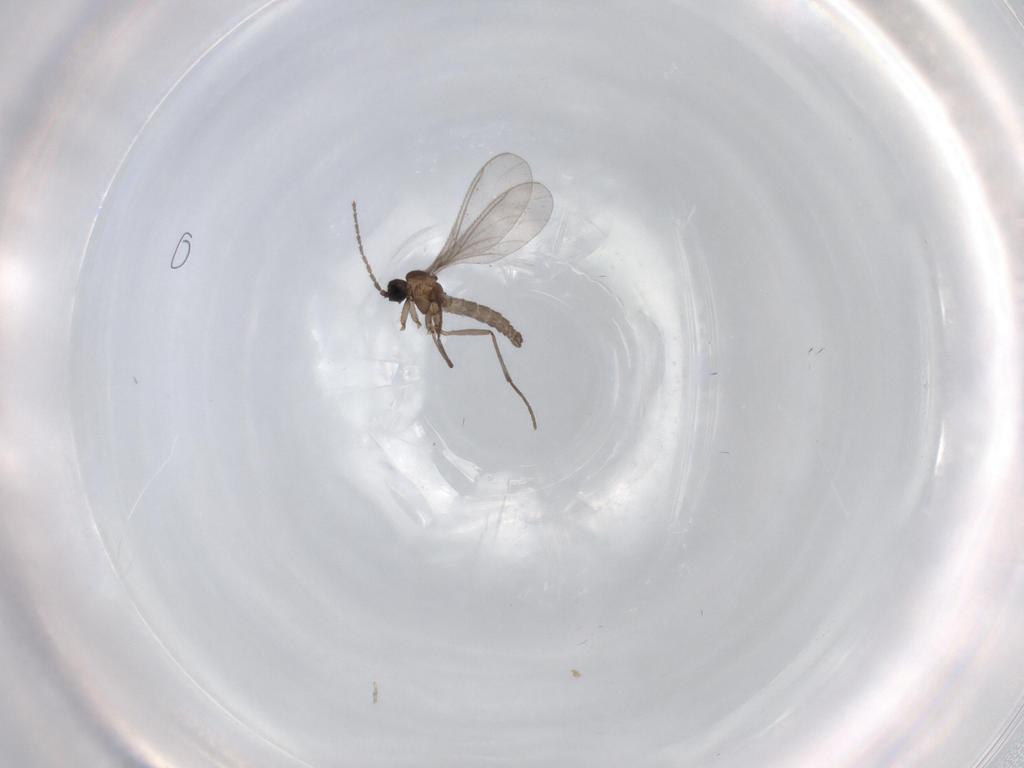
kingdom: Animalia
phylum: Arthropoda
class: Insecta
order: Diptera
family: Sciaridae
